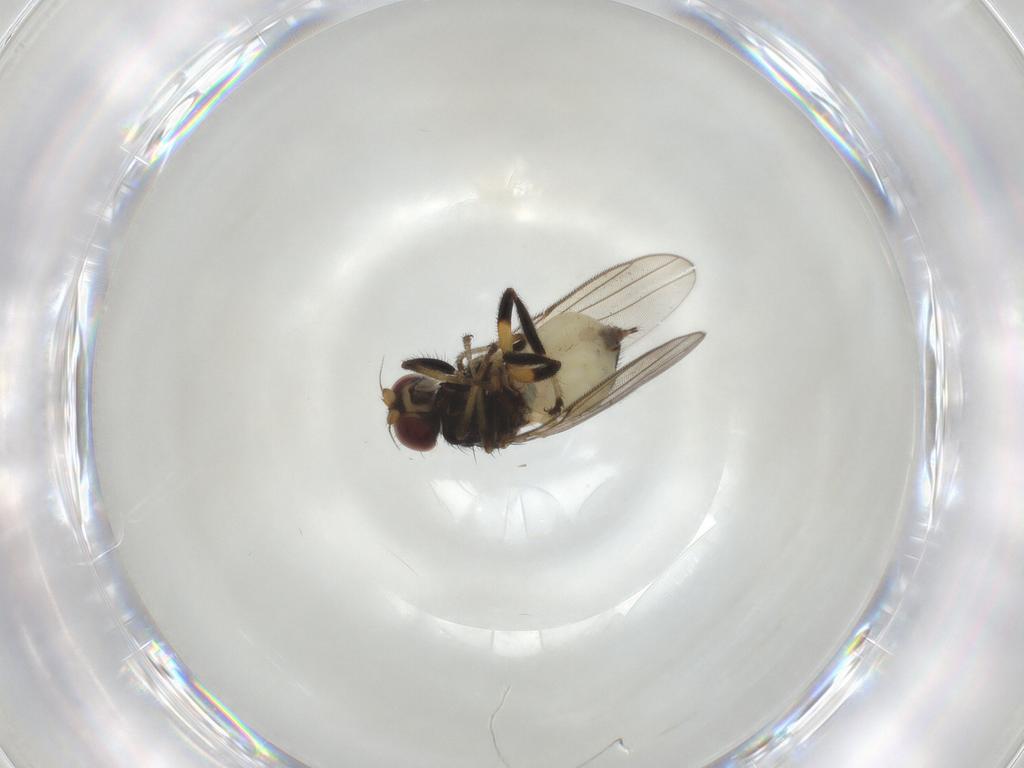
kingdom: Animalia
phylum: Arthropoda
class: Insecta
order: Diptera
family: Chloropidae
